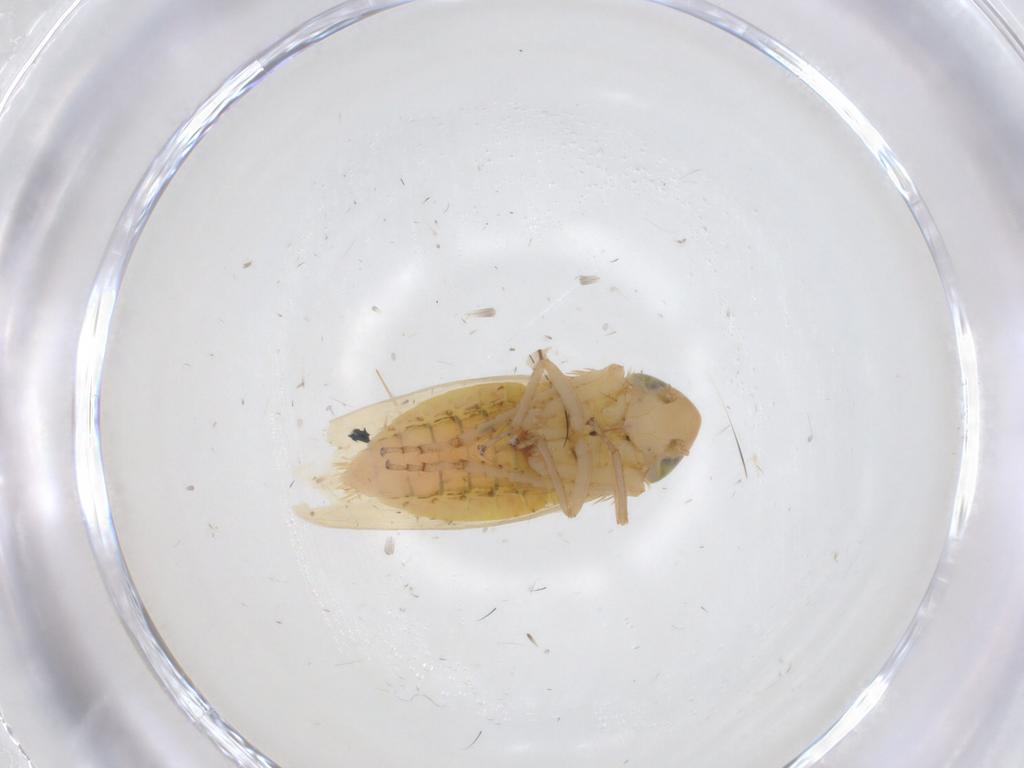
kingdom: Animalia
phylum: Arthropoda
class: Insecta
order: Hemiptera
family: Cicadellidae
